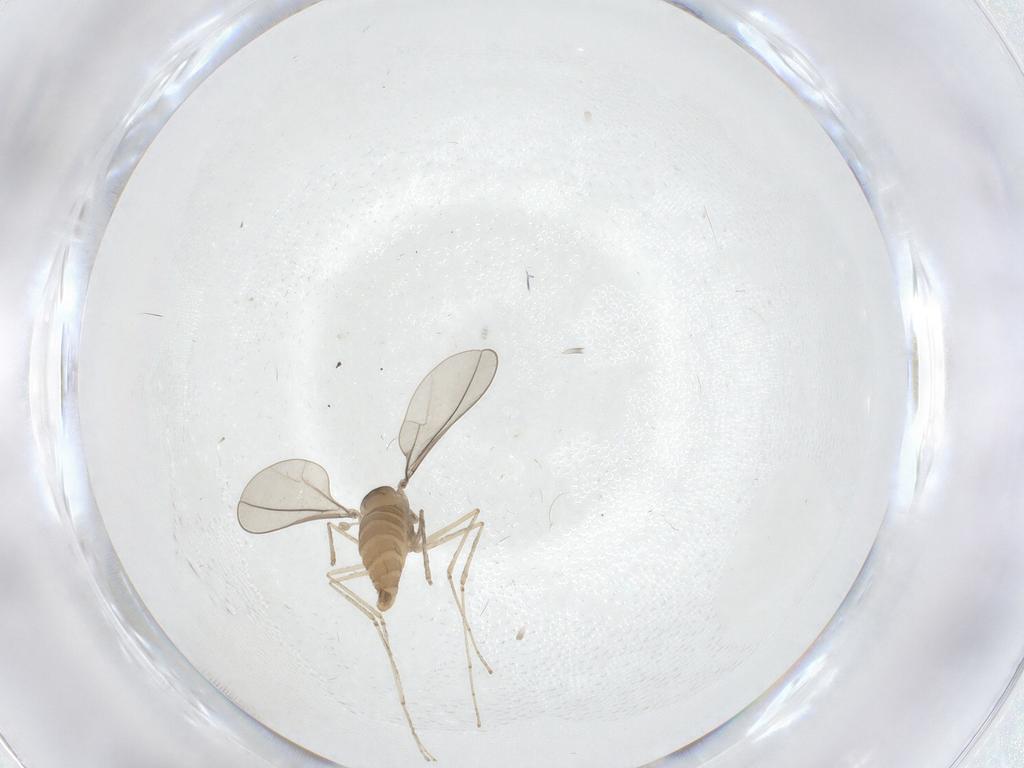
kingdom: Animalia
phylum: Arthropoda
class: Insecta
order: Diptera
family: Cecidomyiidae
